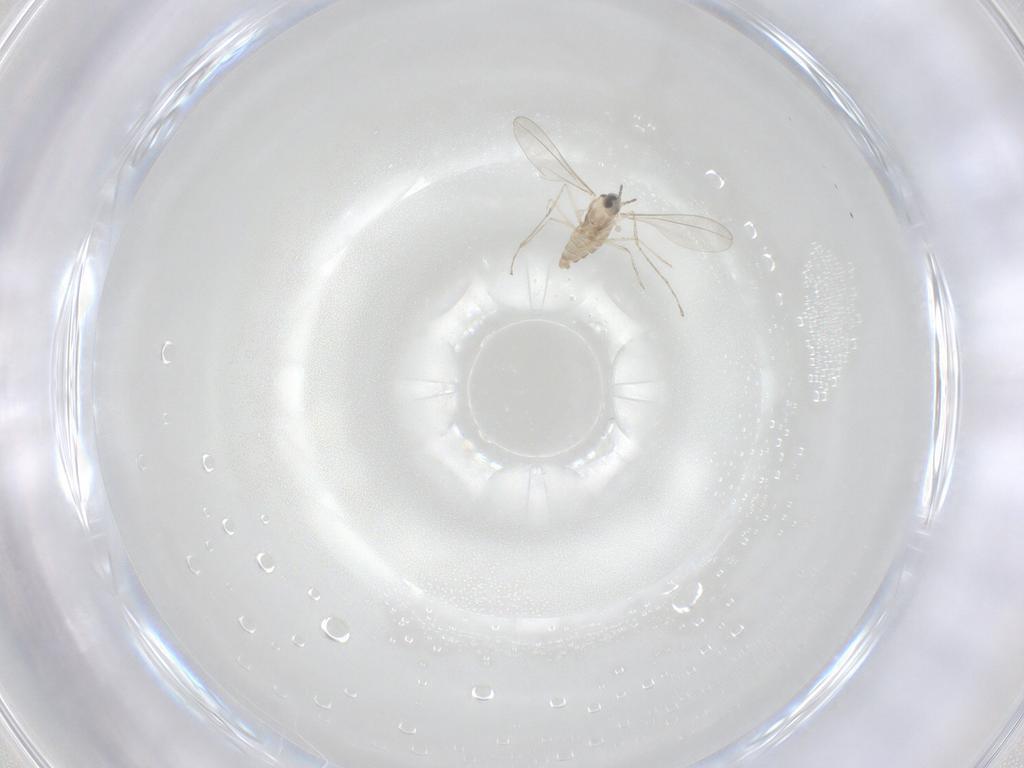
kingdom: Animalia
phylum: Arthropoda
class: Insecta
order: Diptera
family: Cecidomyiidae
